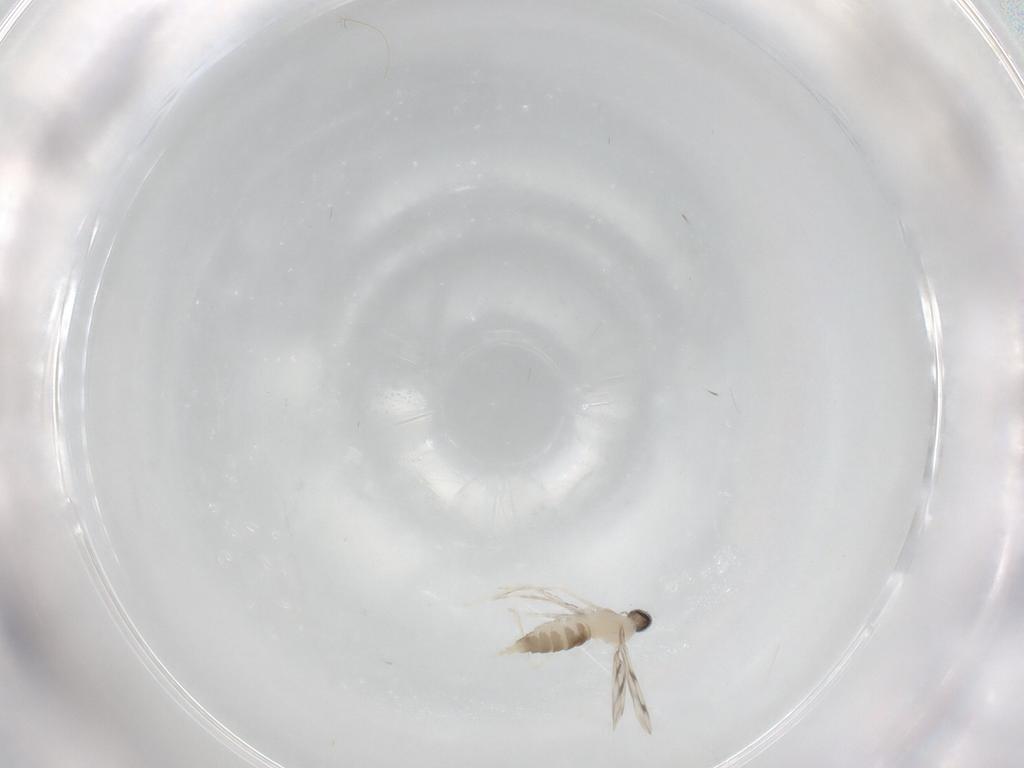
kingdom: Animalia
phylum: Arthropoda
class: Insecta
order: Diptera
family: Cecidomyiidae
